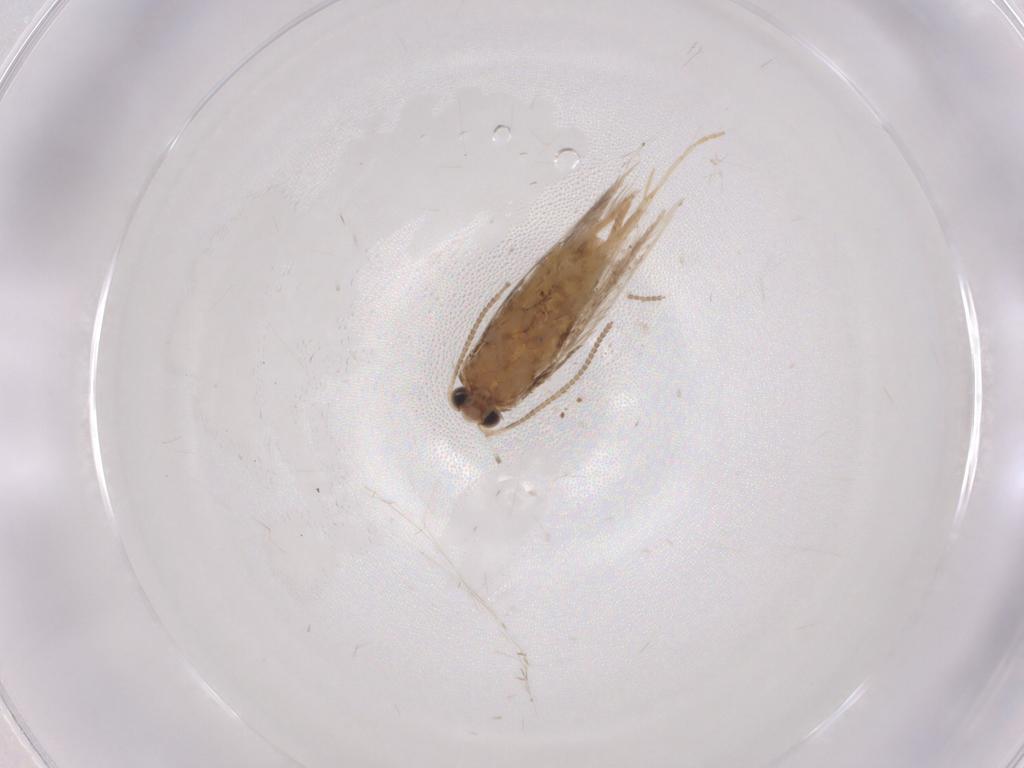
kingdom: Animalia
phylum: Arthropoda
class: Insecta
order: Lepidoptera
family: Nepticulidae
